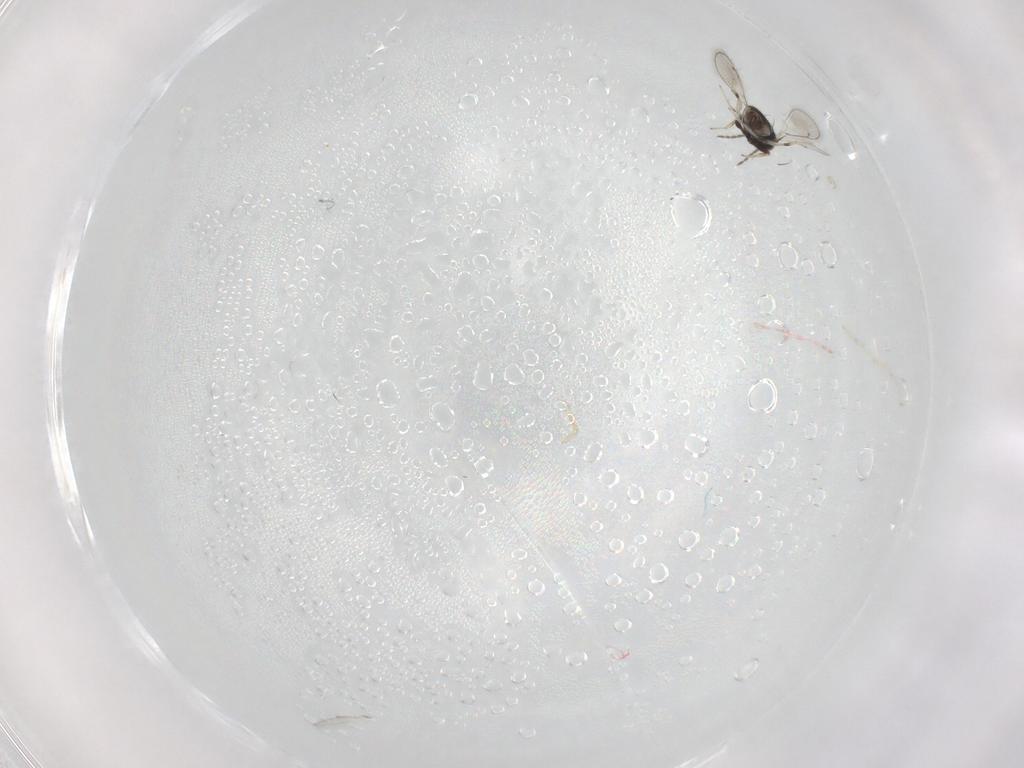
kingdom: Animalia
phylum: Arthropoda
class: Insecta
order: Hymenoptera
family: Eulophidae
